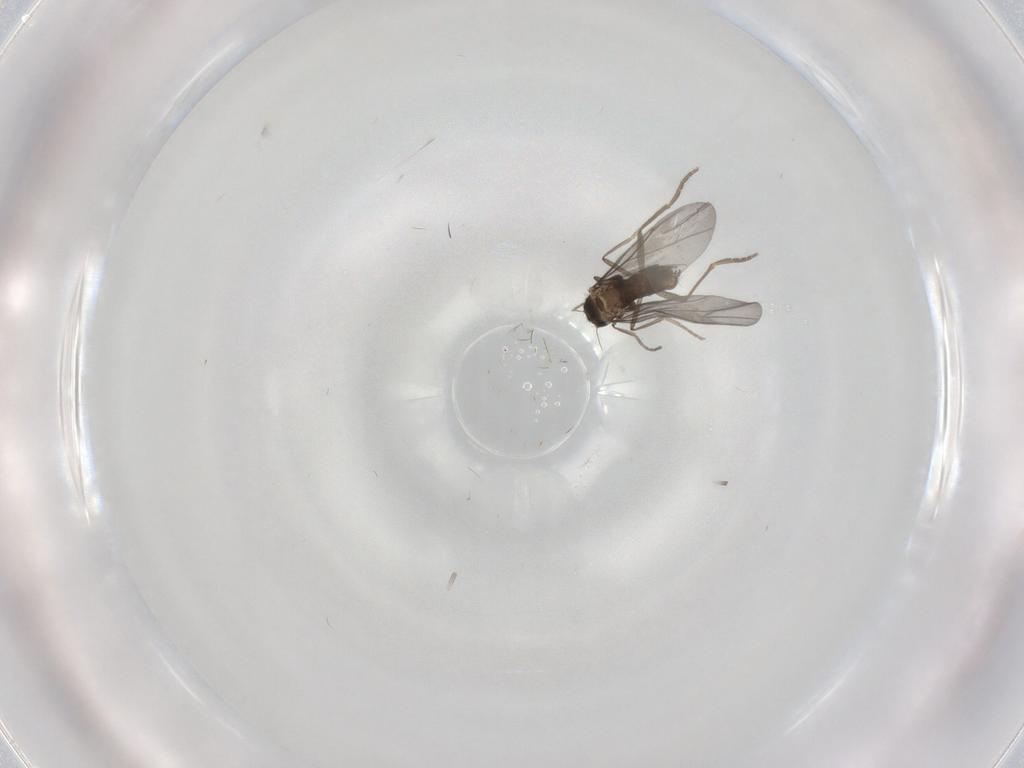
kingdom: Animalia
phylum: Arthropoda
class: Insecta
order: Diptera
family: Phoridae
